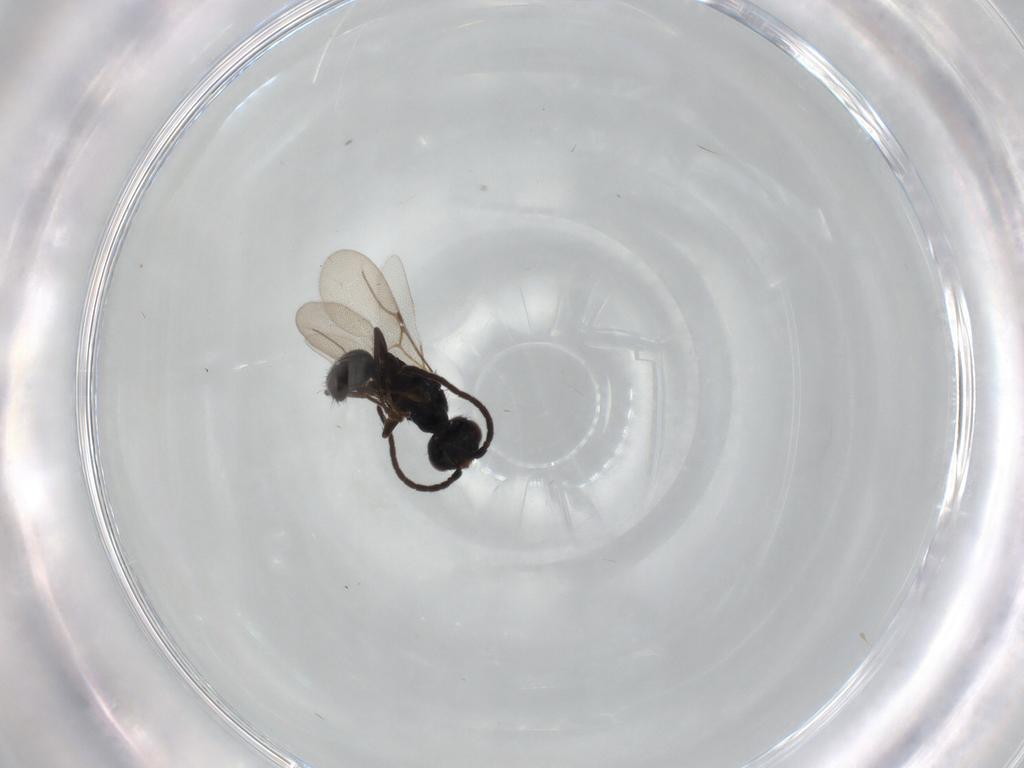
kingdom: Animalia
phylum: Arthropoda
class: Insecta
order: Hymenoptera
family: Bethylidae
